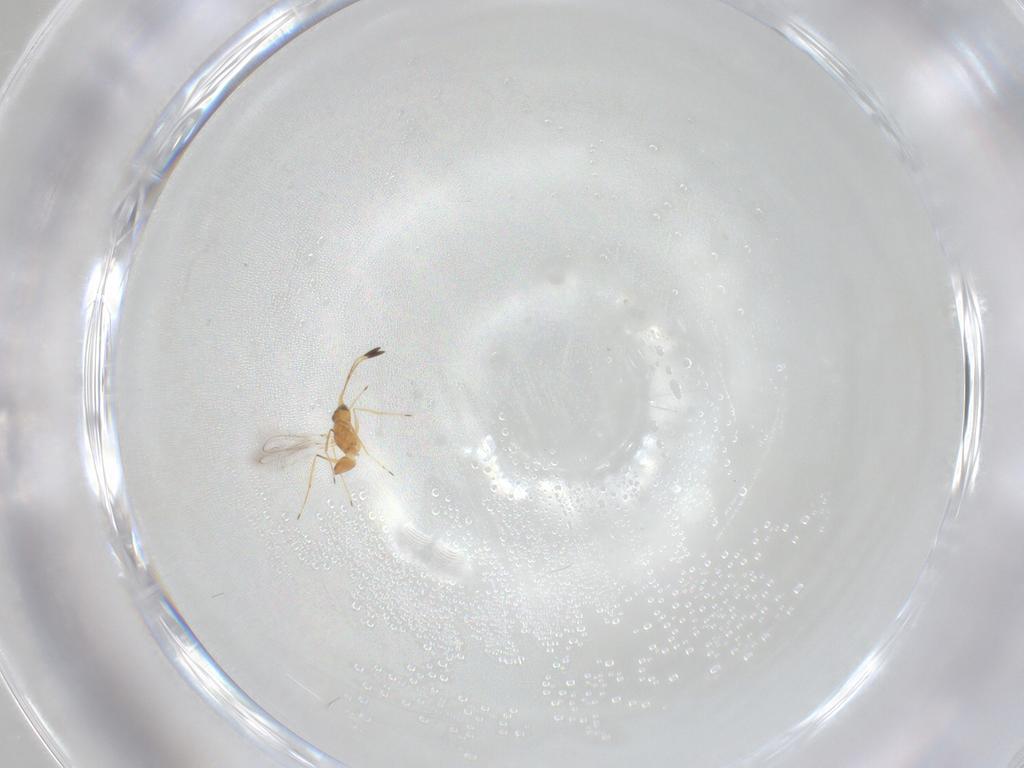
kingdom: Animalia
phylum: Arthropoda
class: Insecta
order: Hymenoptera
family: Mymaridae
